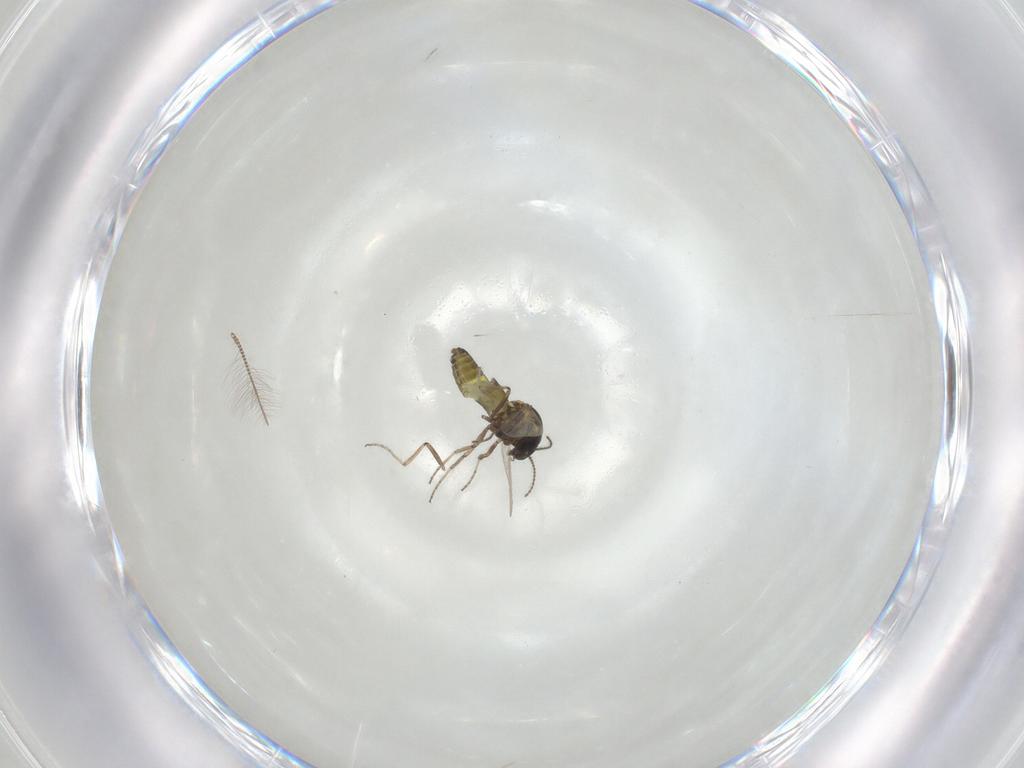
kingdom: Animalia
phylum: Arthropoda
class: Insecta
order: Diptera
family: Ceratopogonidae
